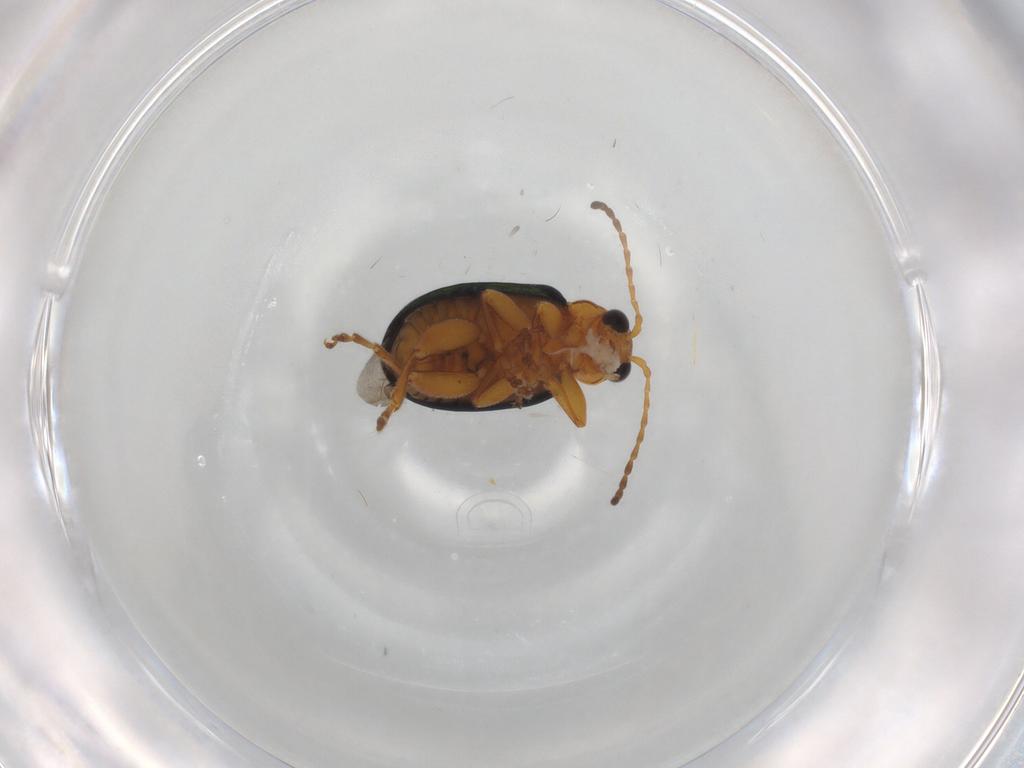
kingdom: Animalia
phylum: Arthropoda
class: Insecta
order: Coleoptera
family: Chrysomelidae
